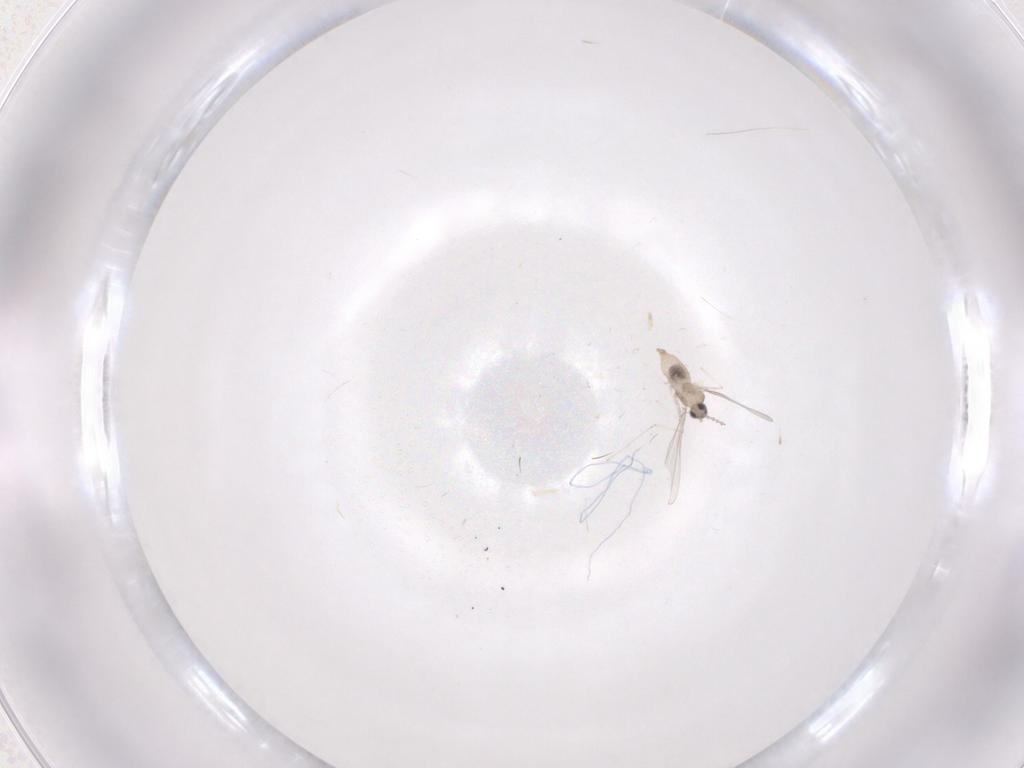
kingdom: Animalia
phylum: Arthropoda
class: Insecta
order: Diptera
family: Cecidomyiidae
